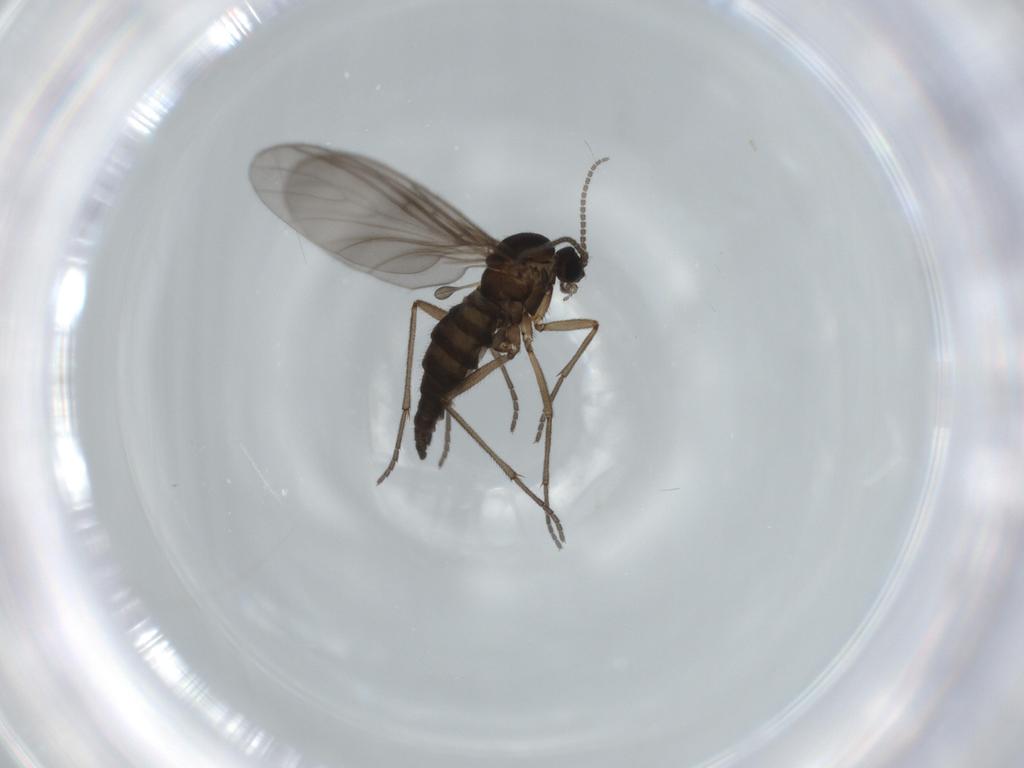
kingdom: Animalia
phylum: Arthropoda
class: Insecta
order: Diptera
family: Sciaridae
